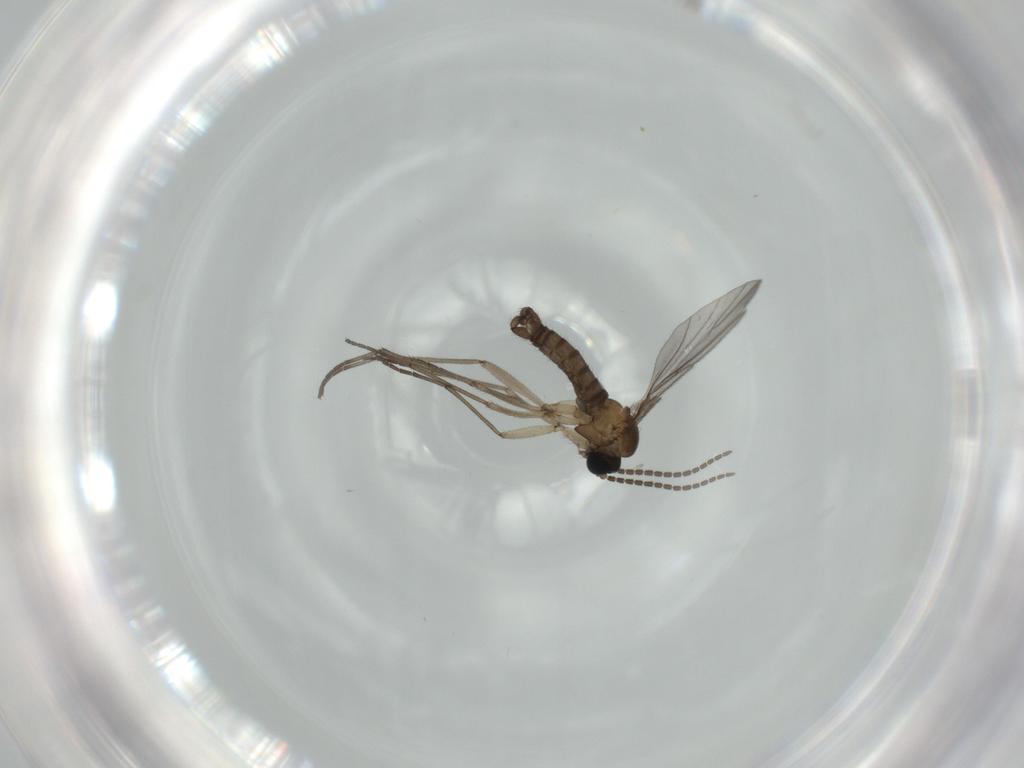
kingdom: Animalia
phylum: Arthropoda
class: Insecta
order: Diptera
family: Sciaridae
